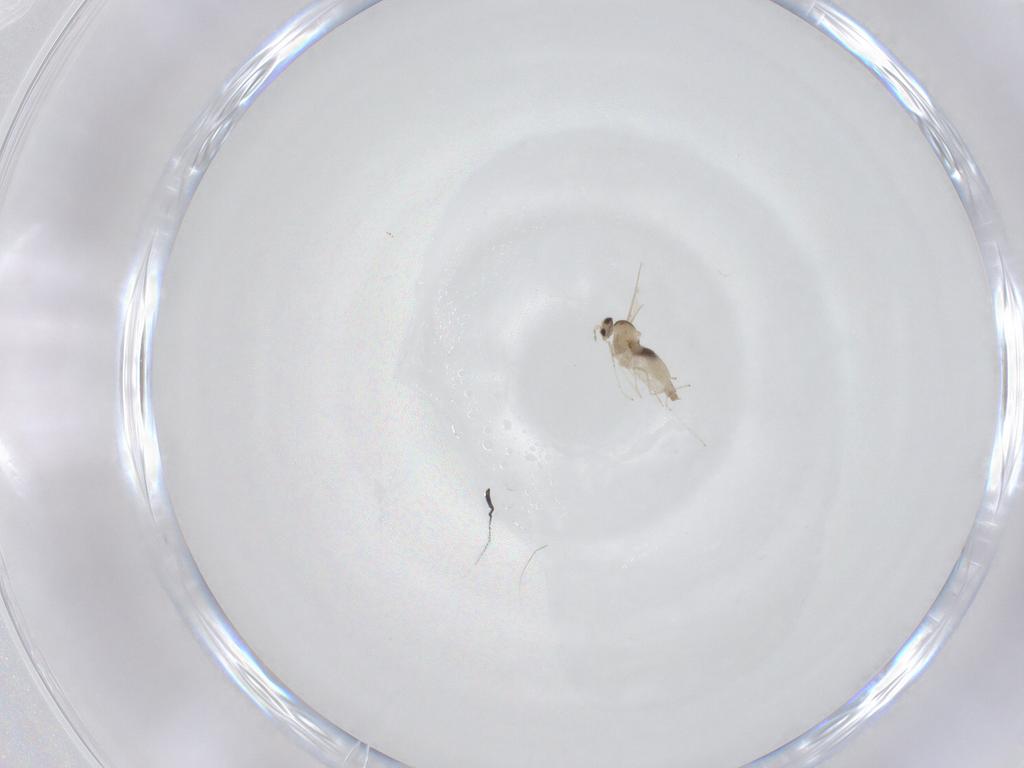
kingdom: Animalia
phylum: Arthropoda
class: Insecta
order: Diptera
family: Cecidomyiidae
